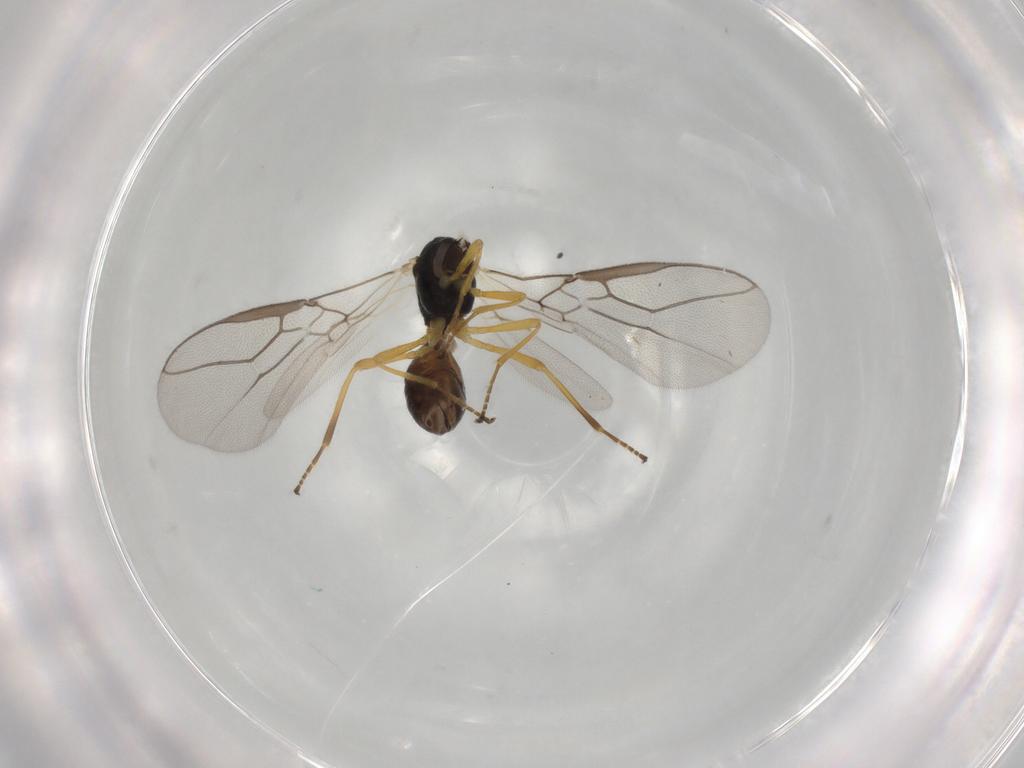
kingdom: Animalia
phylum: Arthropoda
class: Insecta
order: Hymenoptera
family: Braconidae
